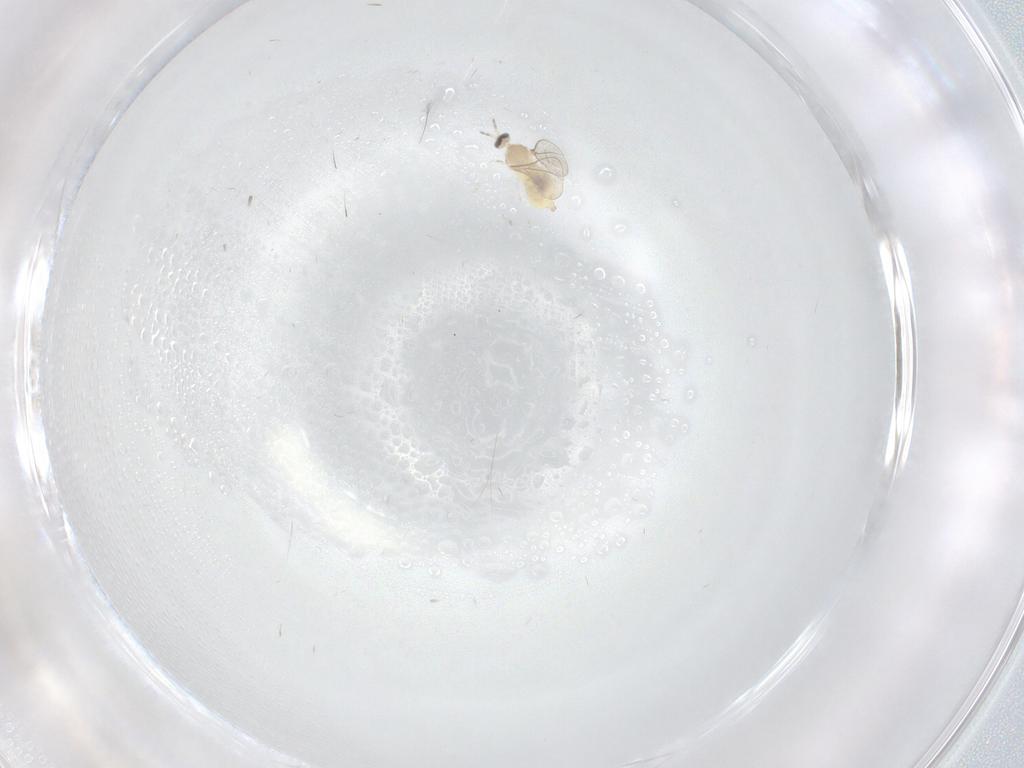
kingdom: Animalia
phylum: Arthropoda
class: Insecta
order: Diptera
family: Cecidomyiidae
